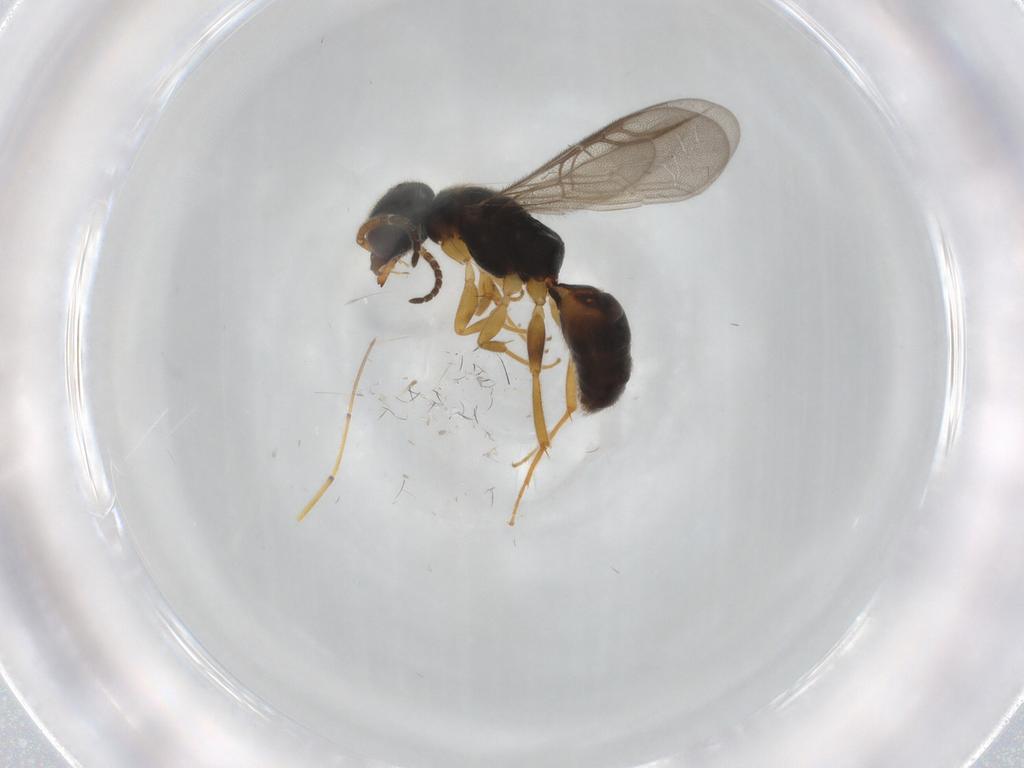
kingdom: Animalia
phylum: Arthropoda
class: Insecta
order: Hymenoptera
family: Bethylidae
